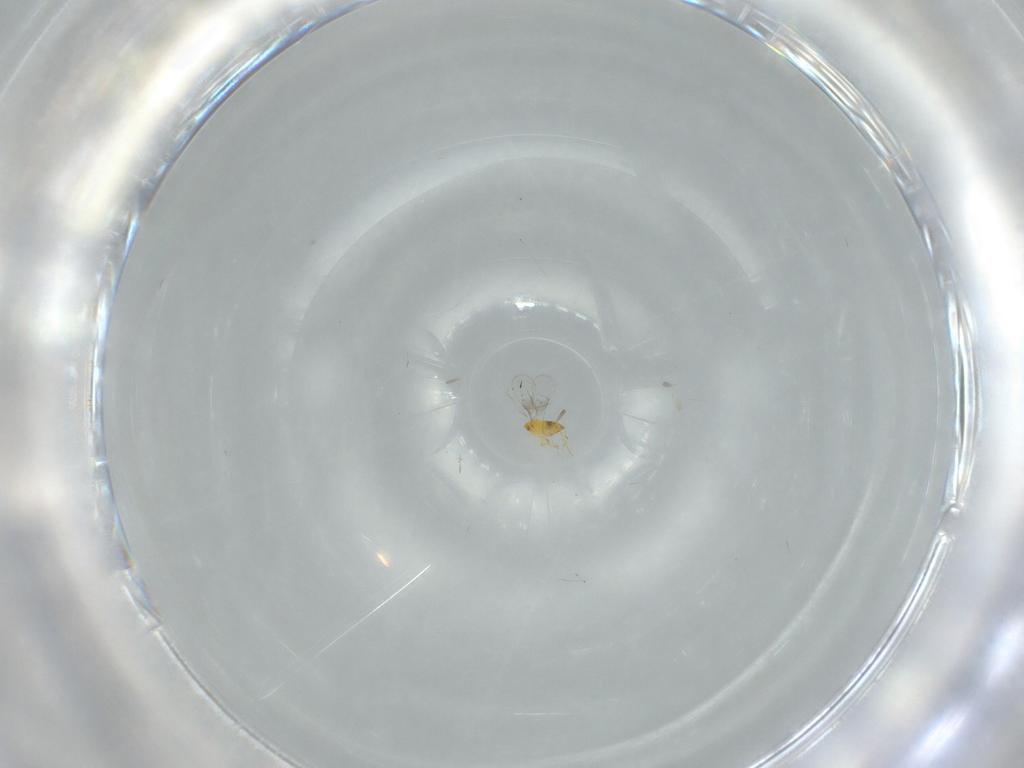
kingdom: Animalia
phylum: Arthropoda
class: Insecta
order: Hymenoptera
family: Trichogrammatidae
